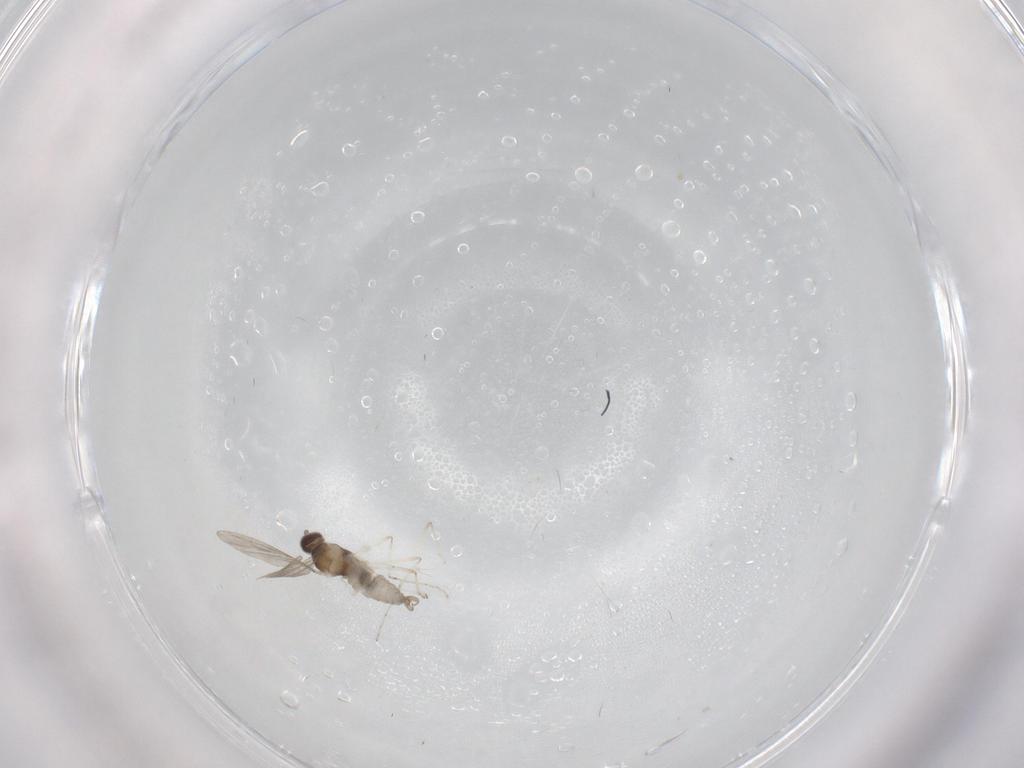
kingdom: Animalia
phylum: Arthropoda
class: Insecta
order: Diptera
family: Cecidomyiidae
